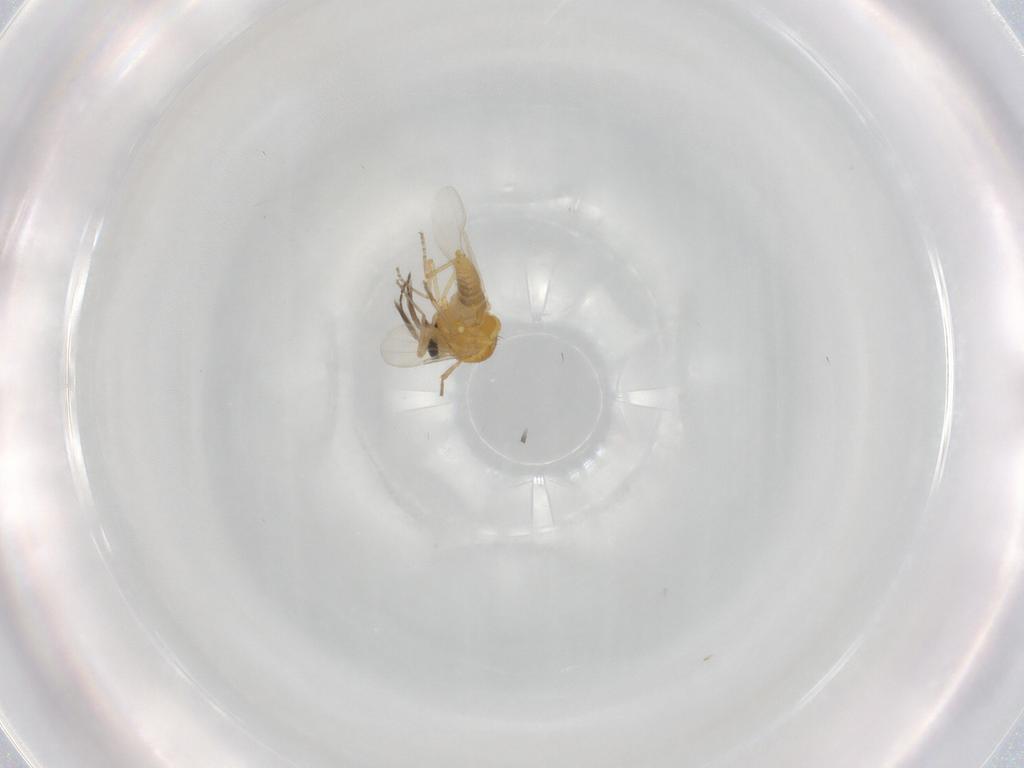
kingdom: Animalia
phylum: Arthropoda
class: Insecta
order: Diptera
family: Ceratopogonidae
